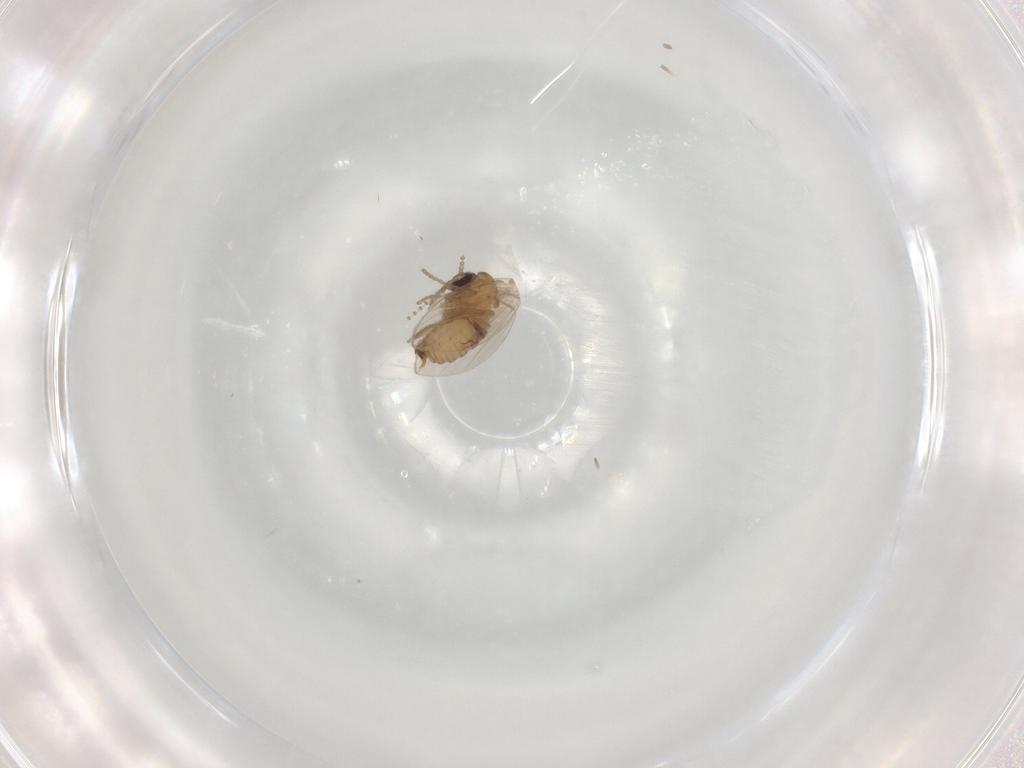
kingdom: Animalia
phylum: Arthropoda
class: Insecta
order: Diptera
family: Psychodidae
